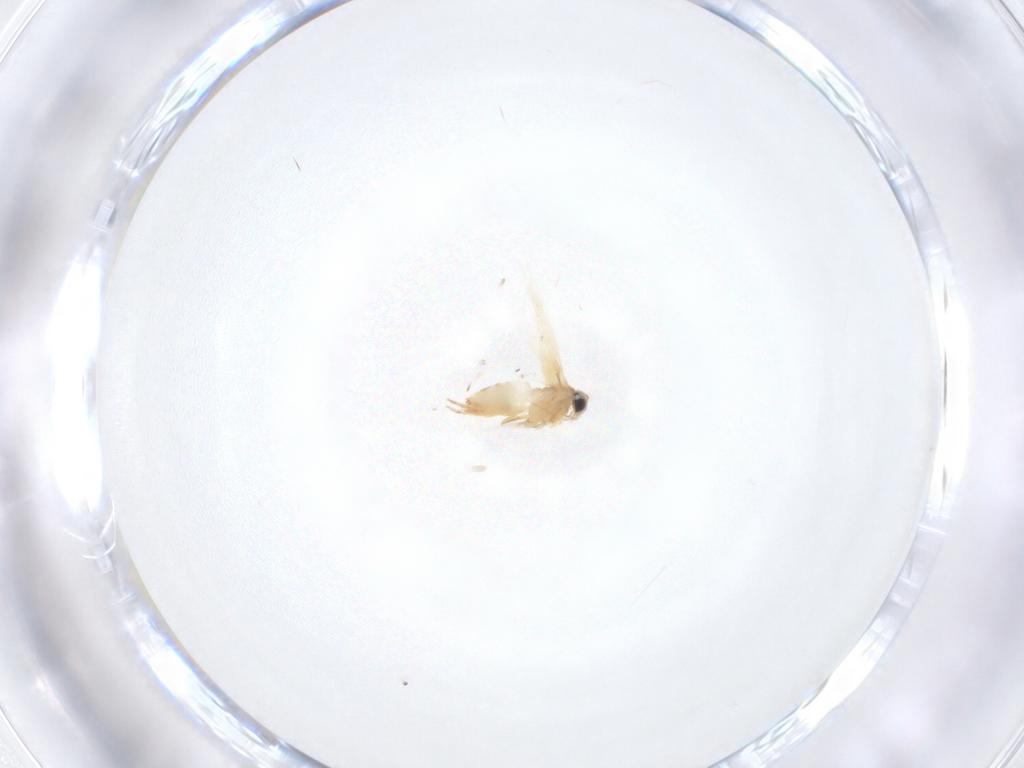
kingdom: Animalia
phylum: Arthropoda
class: Insecta
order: Lepidoptera
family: Crambidae
